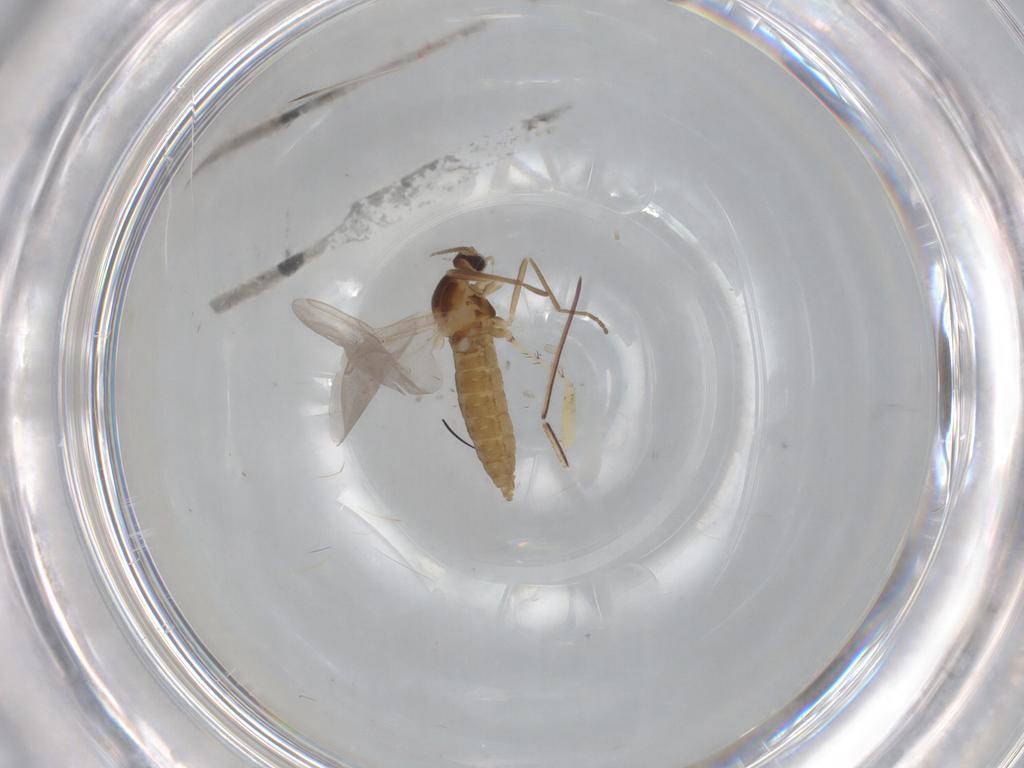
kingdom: Animalia
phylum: Arthropoda
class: Insecta
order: Diptera
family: Cecidomyiidae
